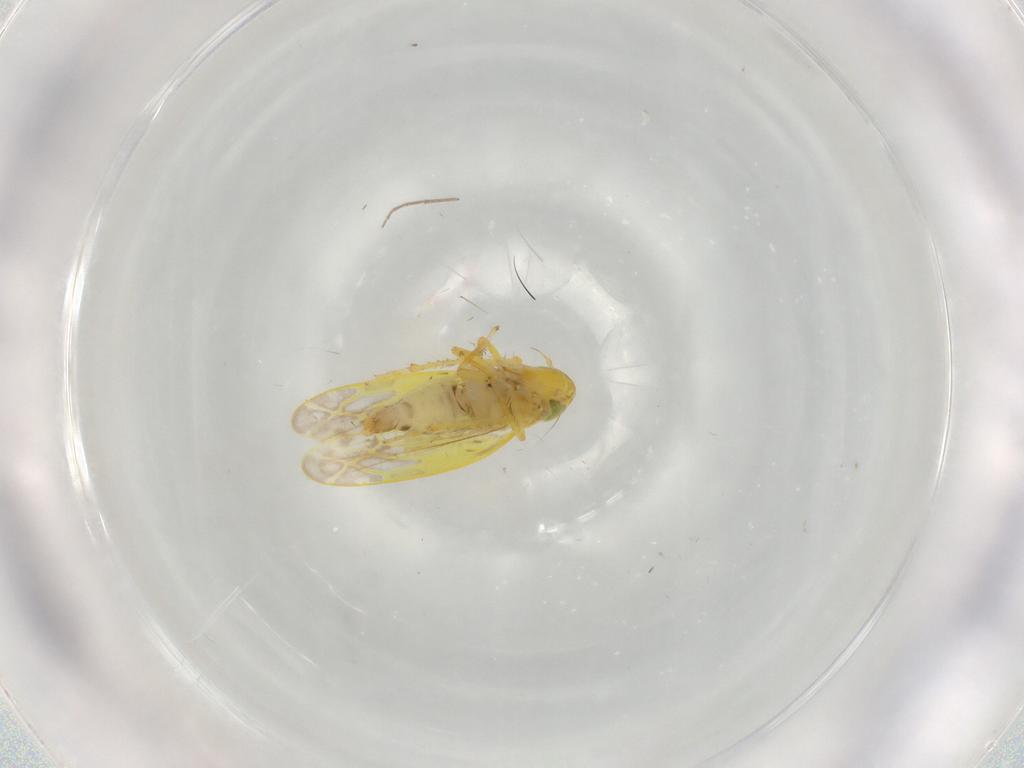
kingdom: Animalia
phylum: Arthropoda
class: Insecta
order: Hemiptera
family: Cicadellidae
